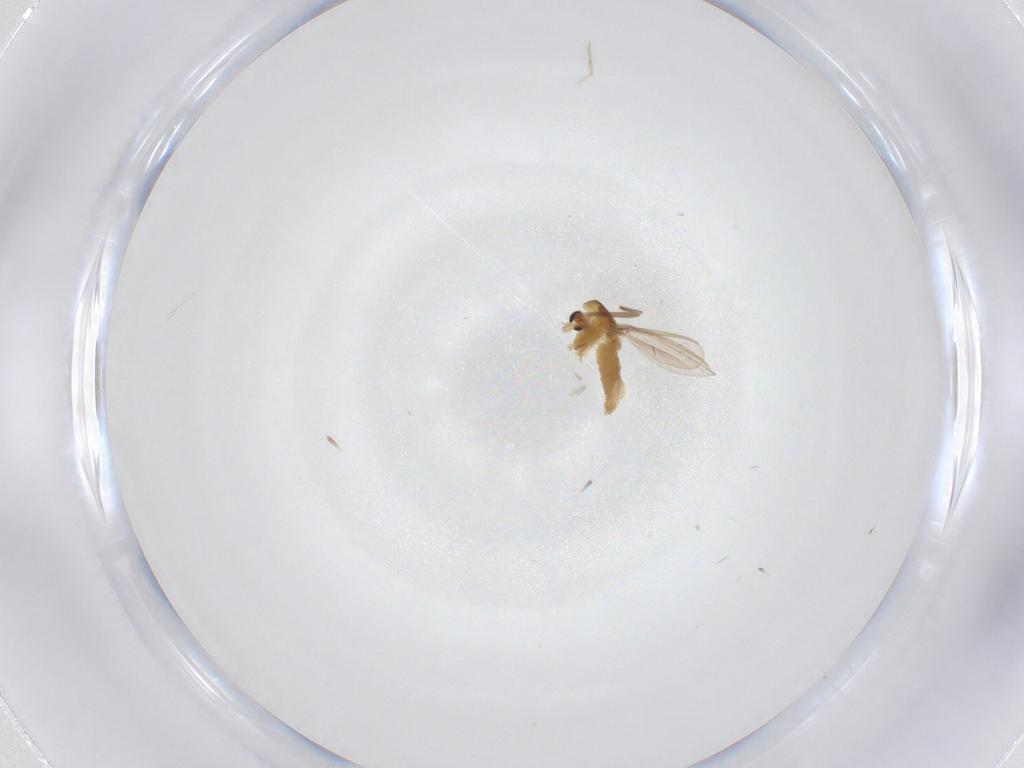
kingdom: Animalia
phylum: Arthropoda
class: Insecta
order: Diptera
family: Chironomidae
